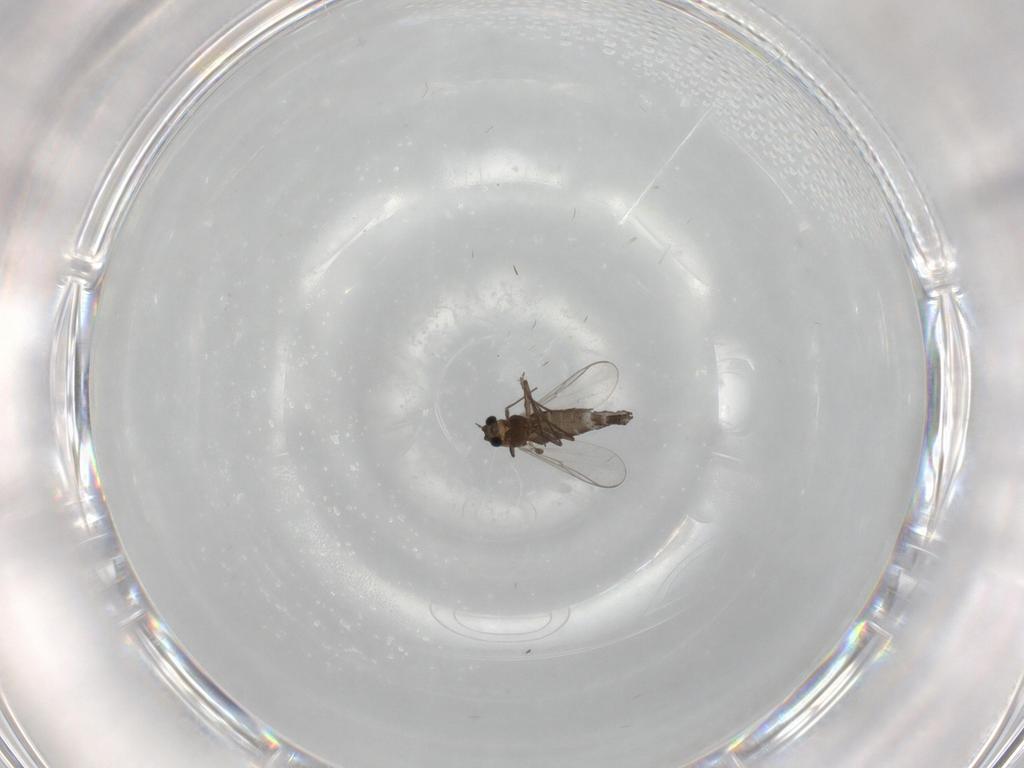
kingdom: Animalia
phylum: Arthropoda
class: Insecta
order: Diptera
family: Chironomidae
